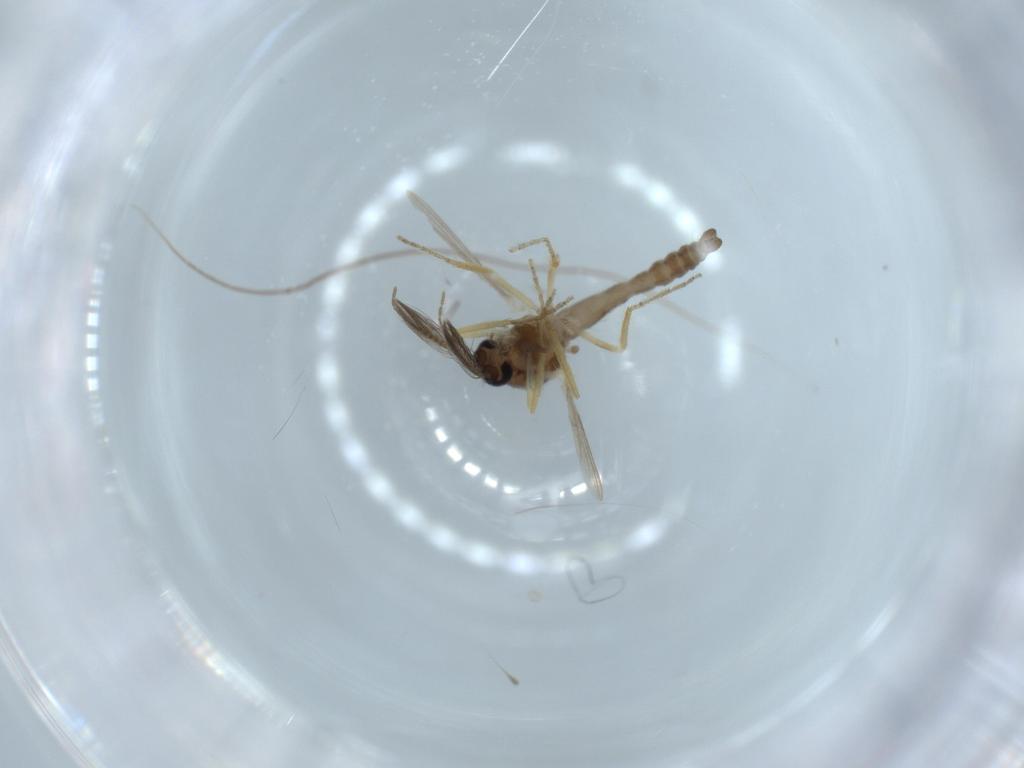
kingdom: Animalia
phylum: Arthropoda
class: Insecta
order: Diptera
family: Ceratopogonidae
